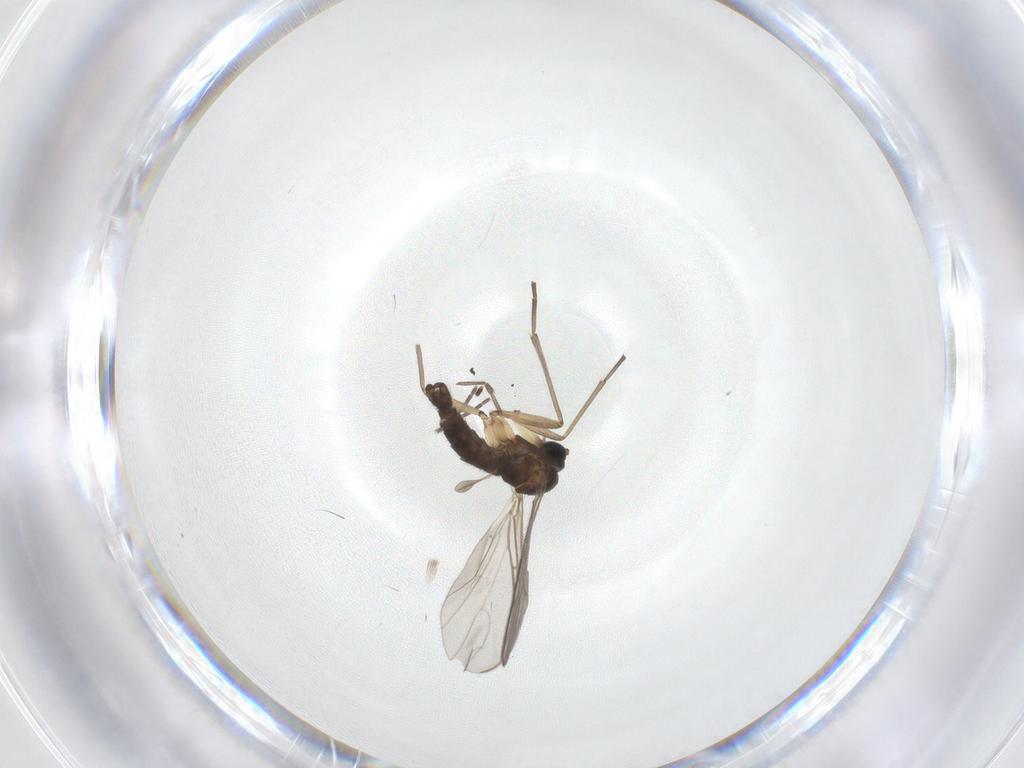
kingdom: Animalia
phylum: Arthropoda
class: Insecta
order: Diptera
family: Sciaridae
